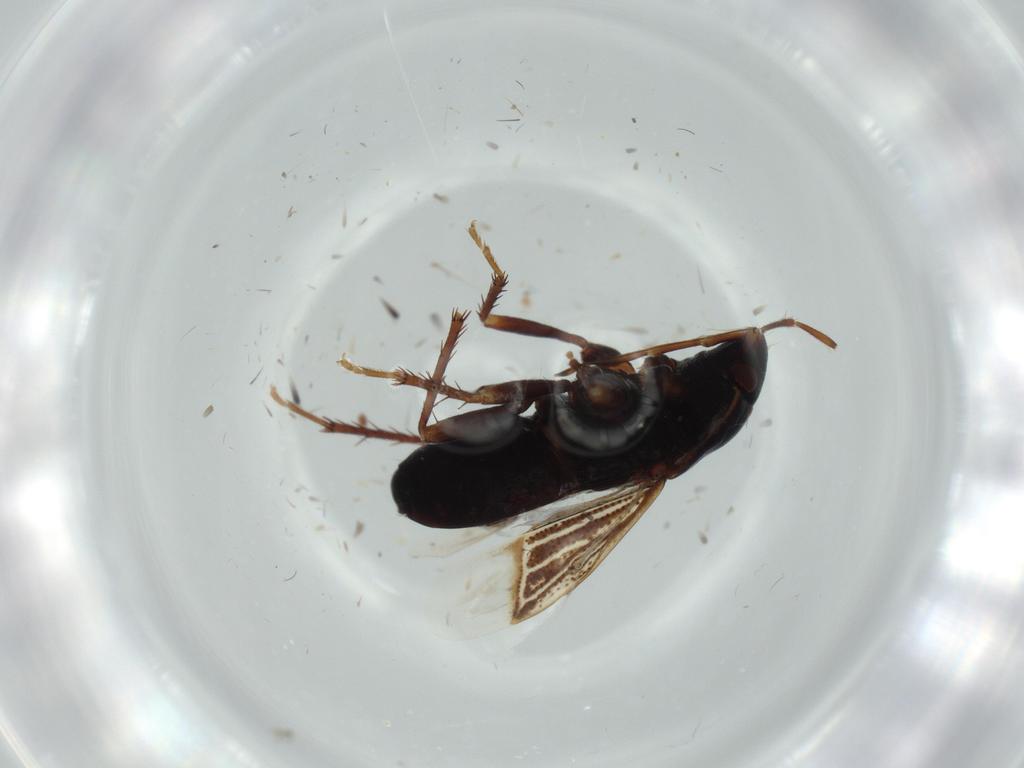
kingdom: Animalia
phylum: Arthropoda
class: Insecta
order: Hemiptera
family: Rhyparochromidae
